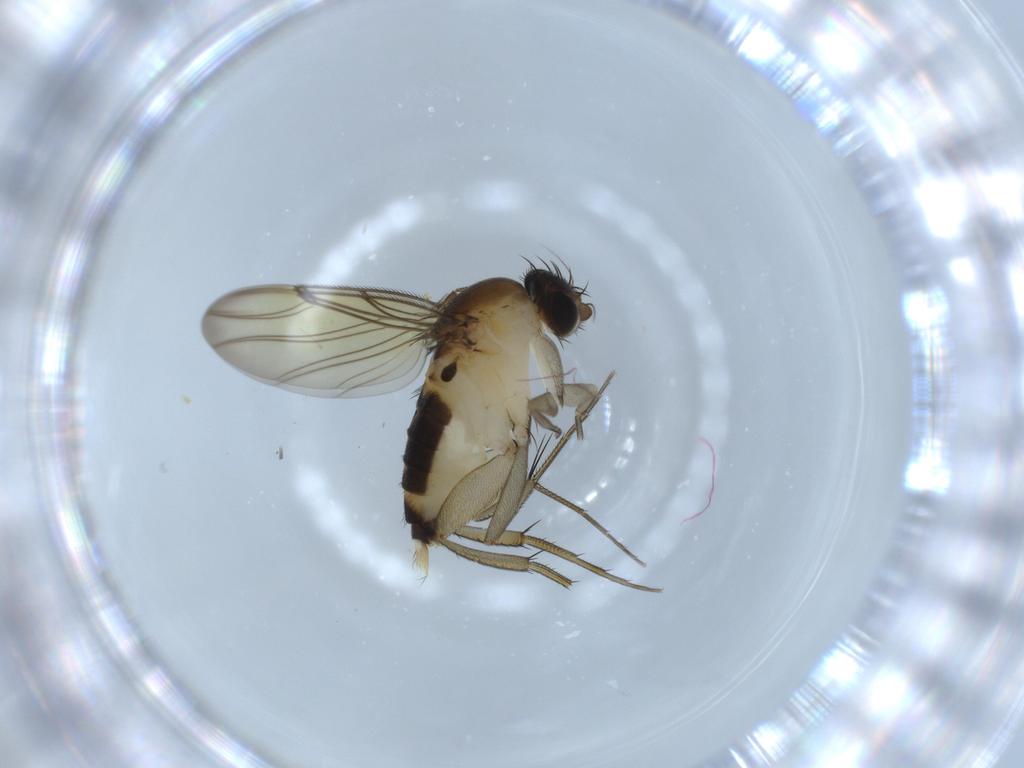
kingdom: Animalia
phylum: Arthropoda
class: Insecta
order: Diptera
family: Phoridae
